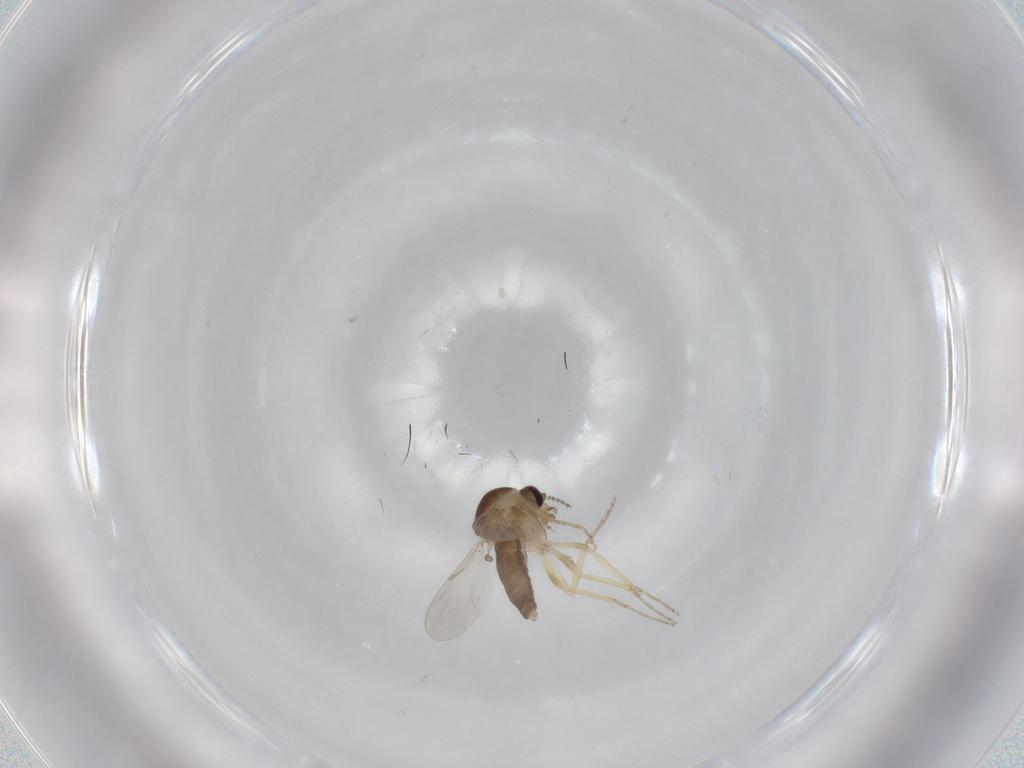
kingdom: Animalia
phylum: Arthropoda
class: Insecta
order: Diptera
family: Ceratopogonidae
